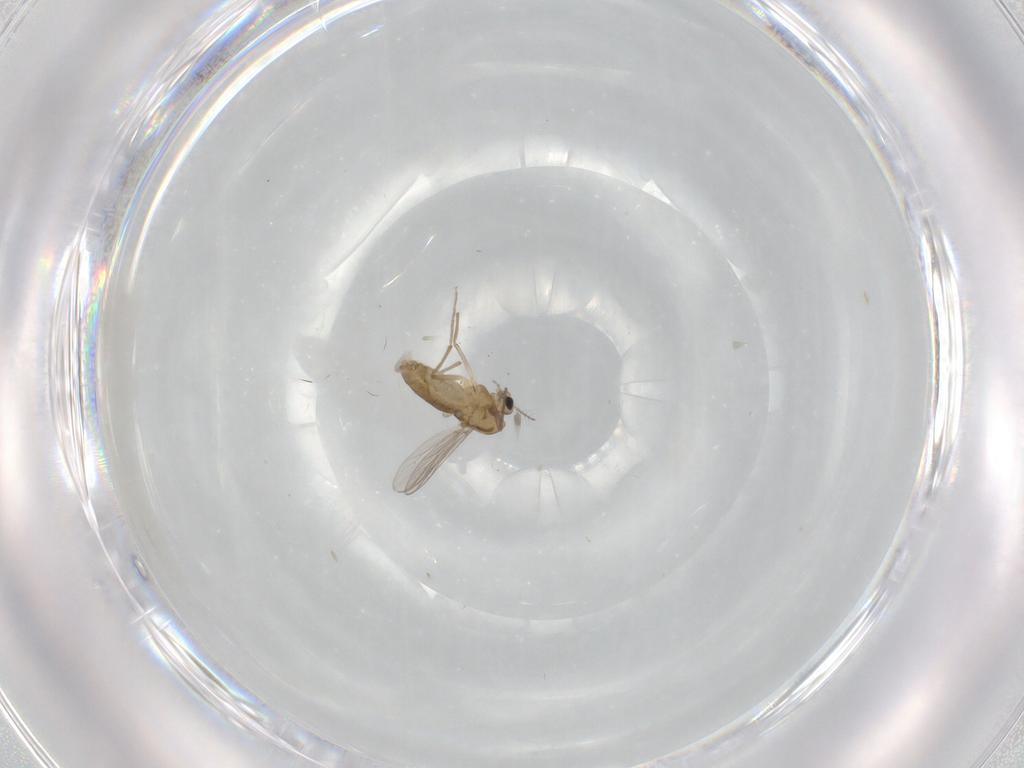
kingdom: Animalia
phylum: Arthropoda
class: Insecta
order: Diptera
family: Chironomidae
